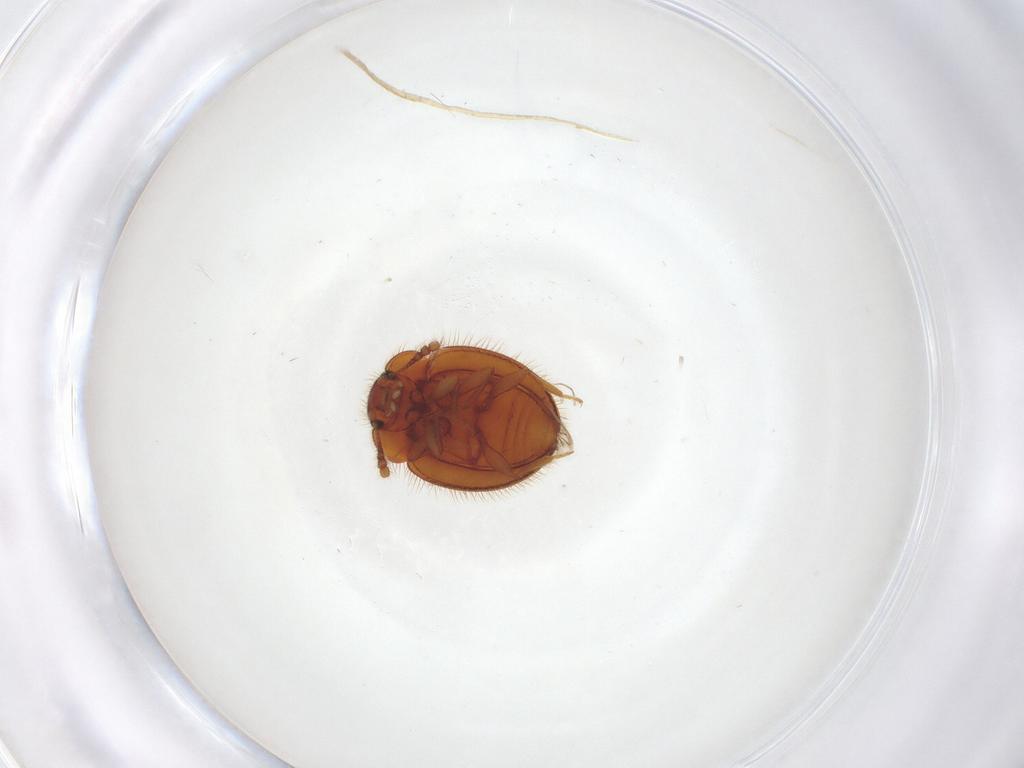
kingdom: Animalia
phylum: Arthropoda
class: Insecta
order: Coleoptera
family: Anamorphidae
